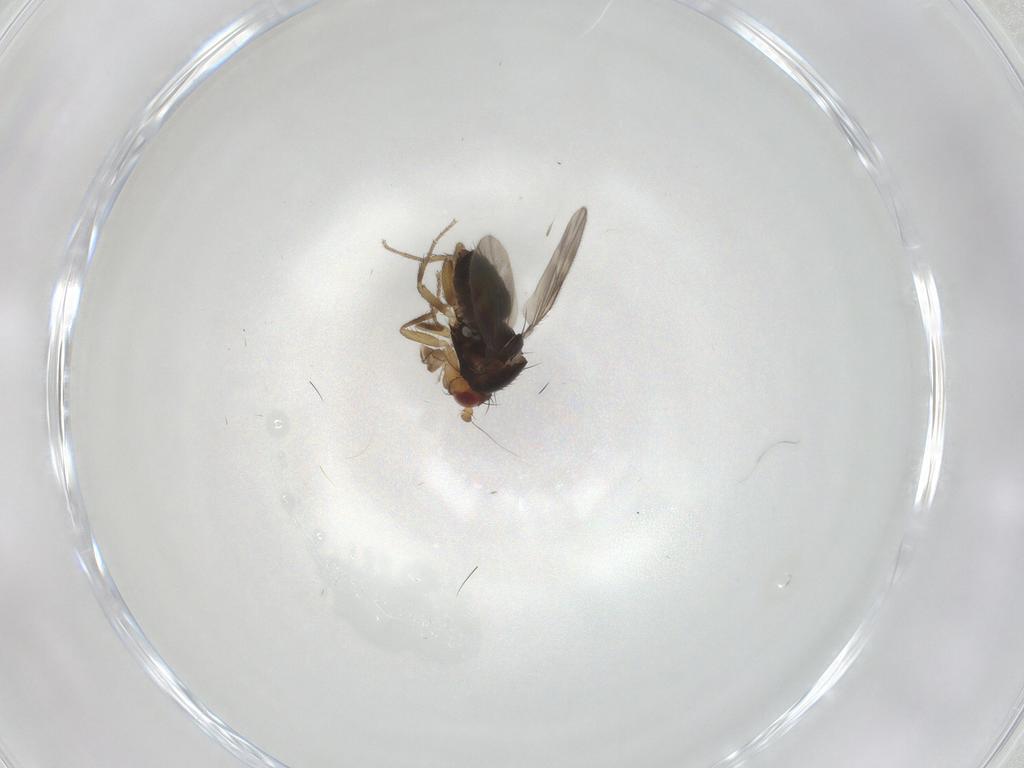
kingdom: Animalia
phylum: Arthropoda
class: Insecta
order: Diptera
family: Sphaeroceridae
